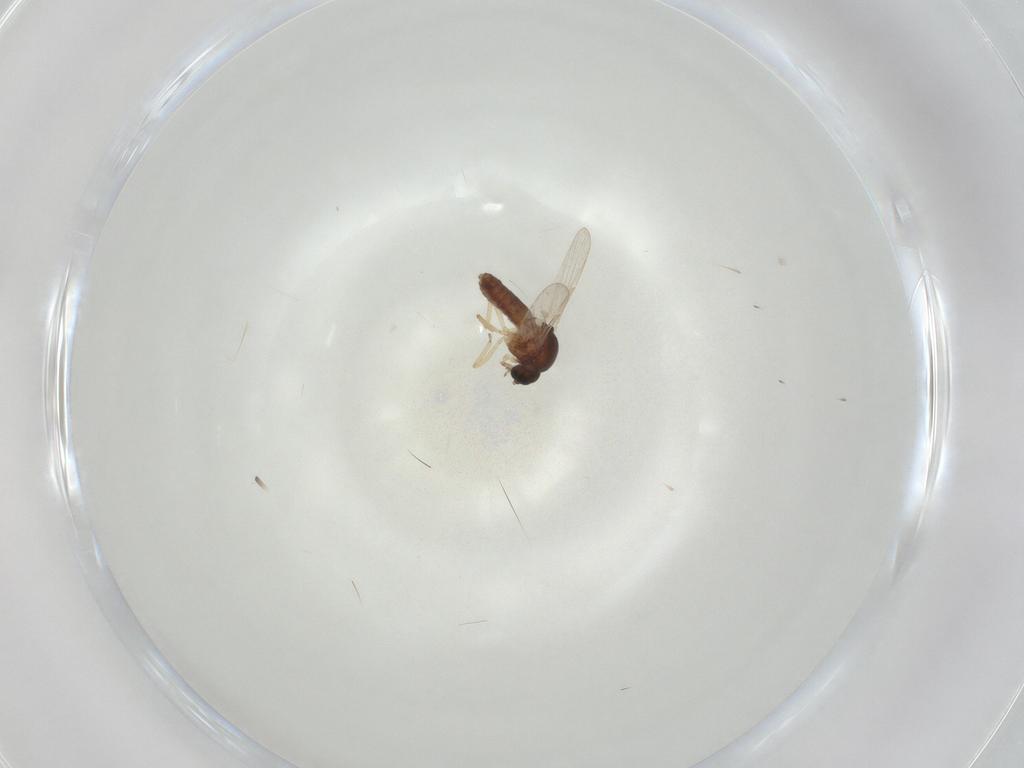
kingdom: Animalia
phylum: Arthropoda
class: Insecta
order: Diptera
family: Ceratopogonidae
